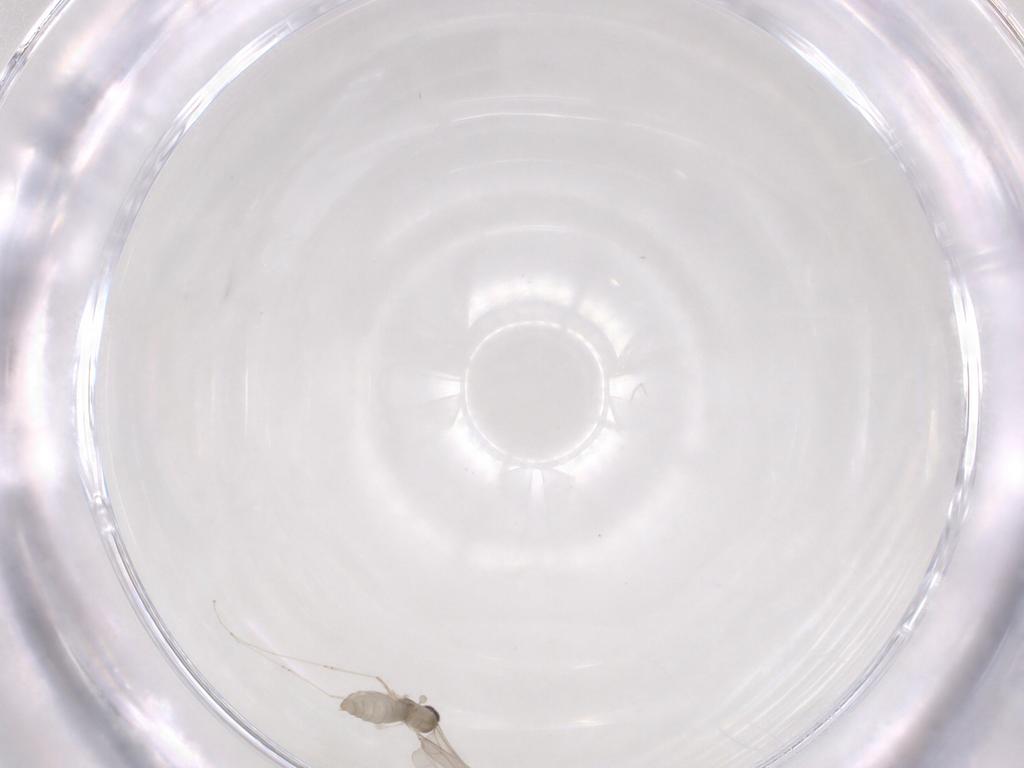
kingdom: Animalia
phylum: Arthropoda
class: Insecta
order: Diptera
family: Cecidomyiidae
